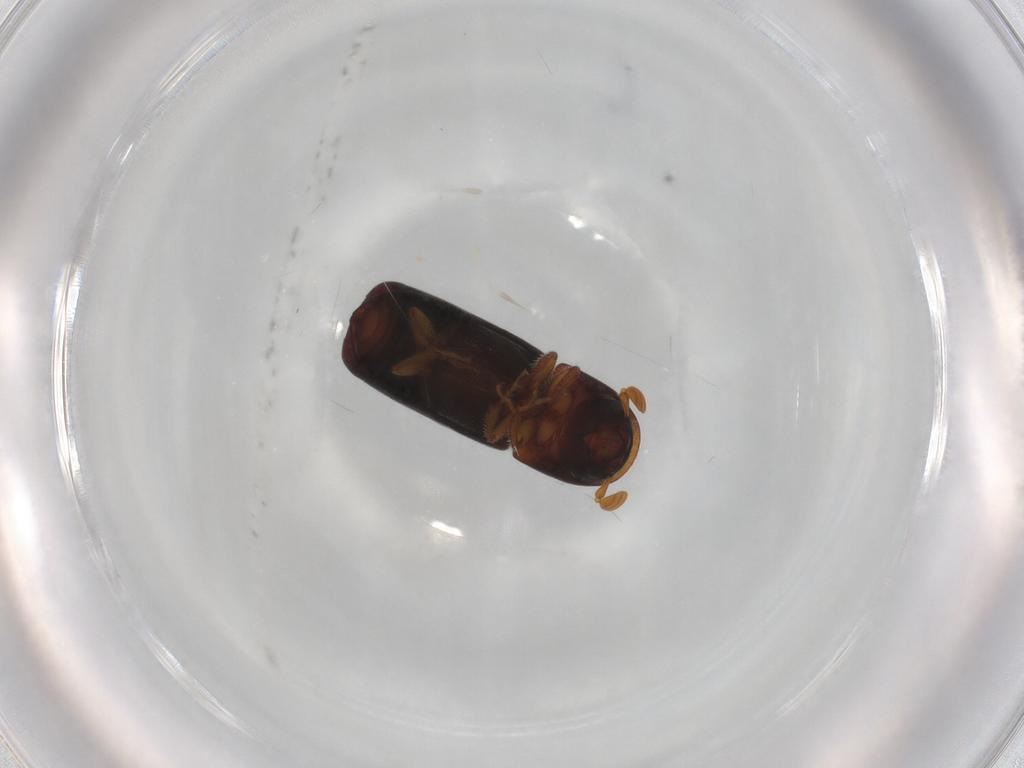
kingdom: Animalia
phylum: Arthropoda
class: Insecta
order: Coleoptera
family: Curculionidae
